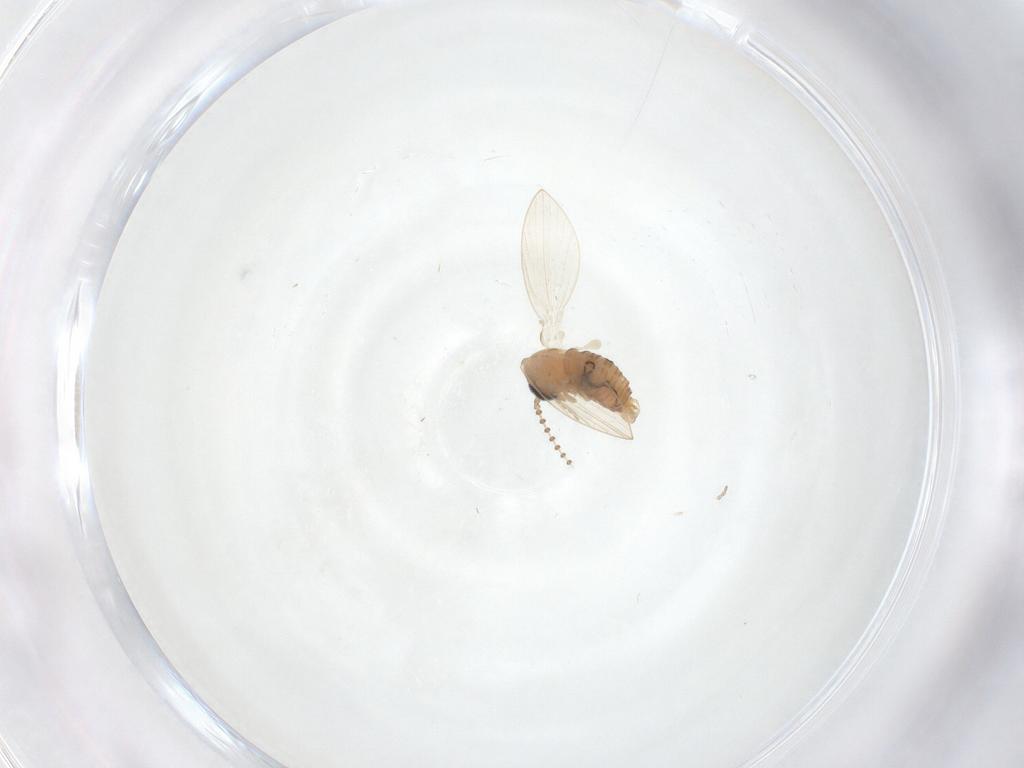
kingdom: Animalia
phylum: Arthropoda
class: Insecta
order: Diptera
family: Psychodidae
